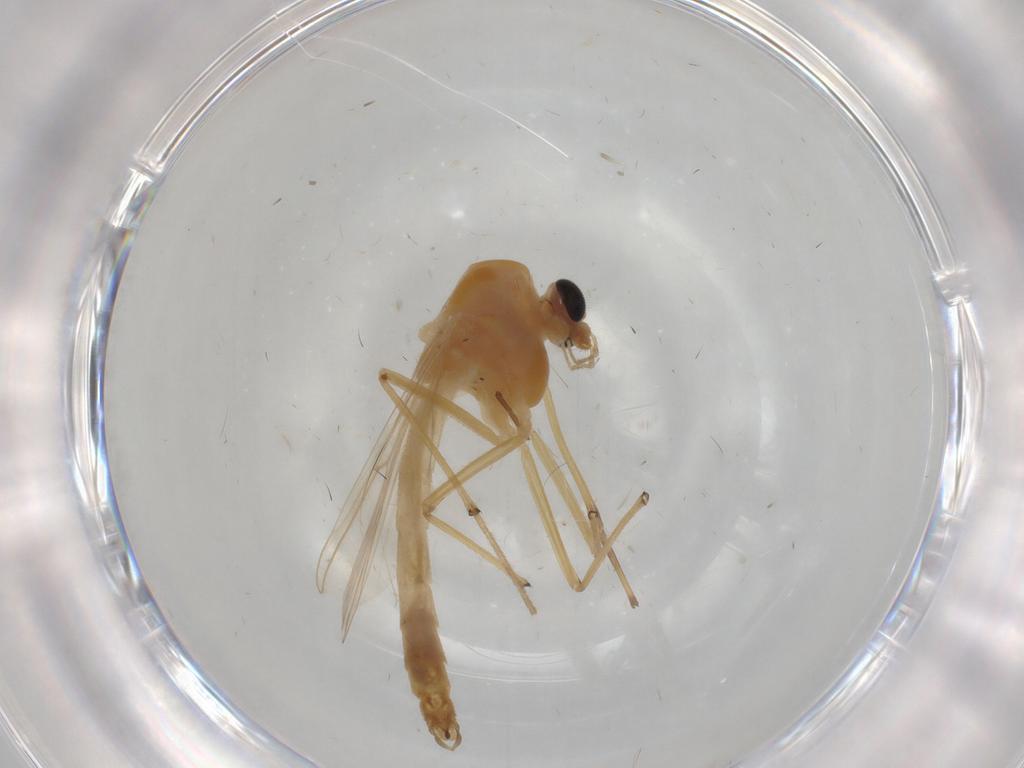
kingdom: Animalia
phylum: Arthropoda
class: Insecta
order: Diptera
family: Chironomidae
